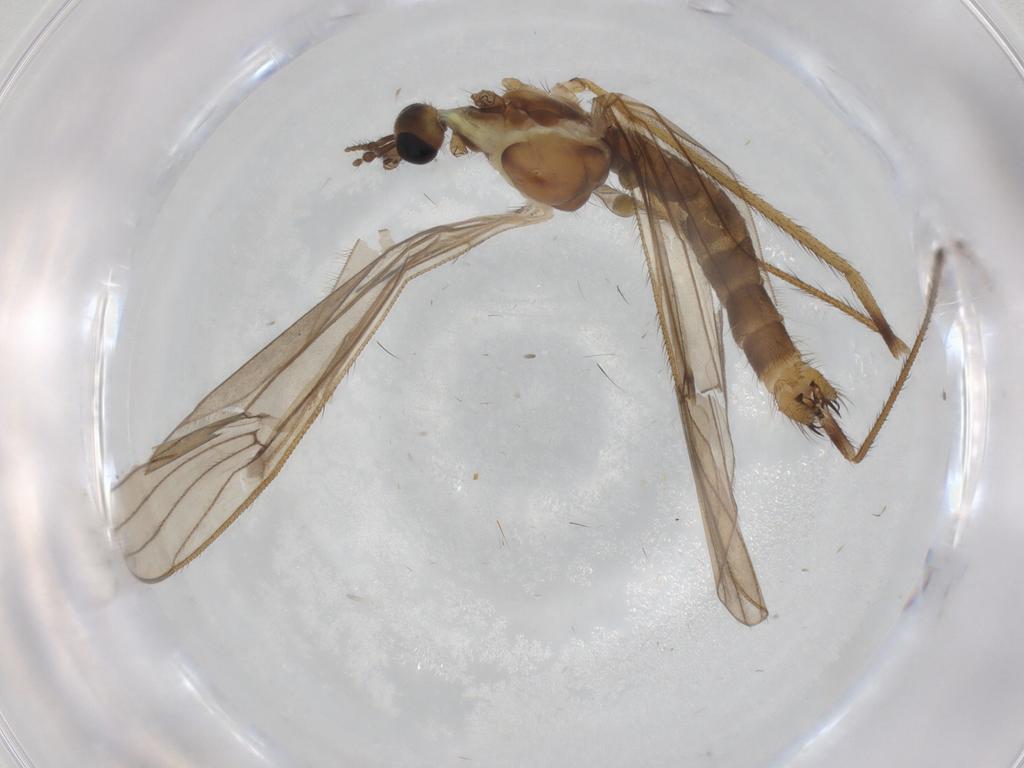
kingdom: Animalia
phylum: Arthropoda
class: Insecta
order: Diptera
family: Limoniidae
